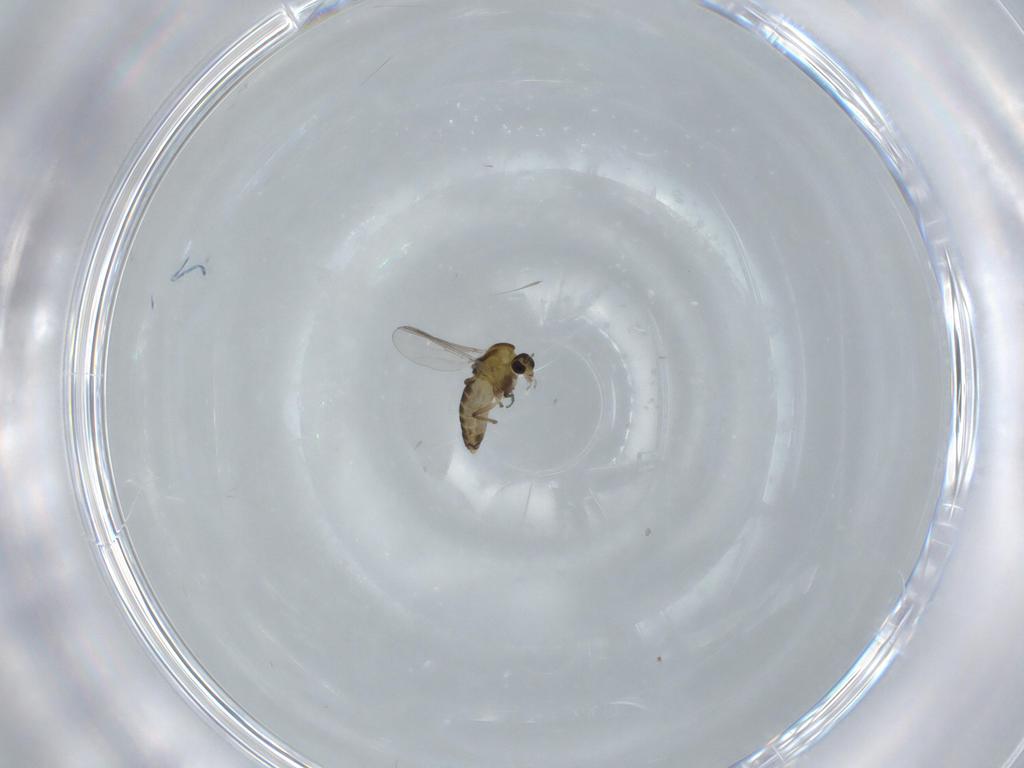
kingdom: Animalia
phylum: Arthropoda
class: Insecta
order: Diptera
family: Chironomidae
